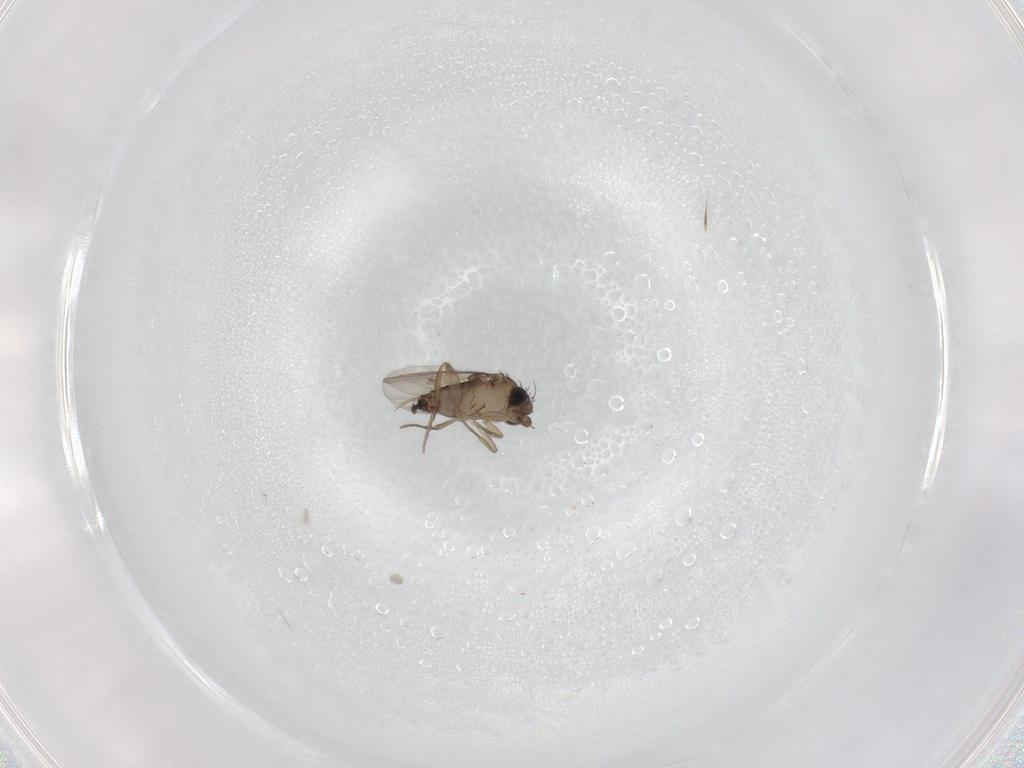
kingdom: Animalia
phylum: Arthropoda
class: Insecta
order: Diptera
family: Phoridae
